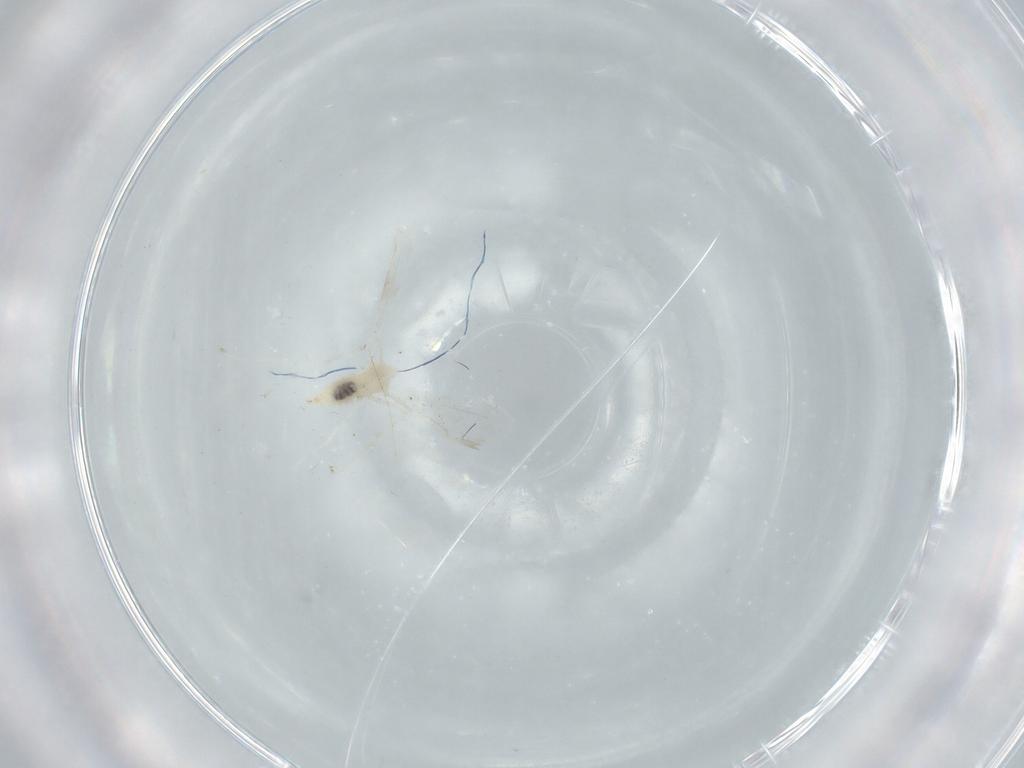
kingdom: Animalia
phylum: Arthropoda
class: Insecta
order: Diptera
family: Cecidomyiidae
